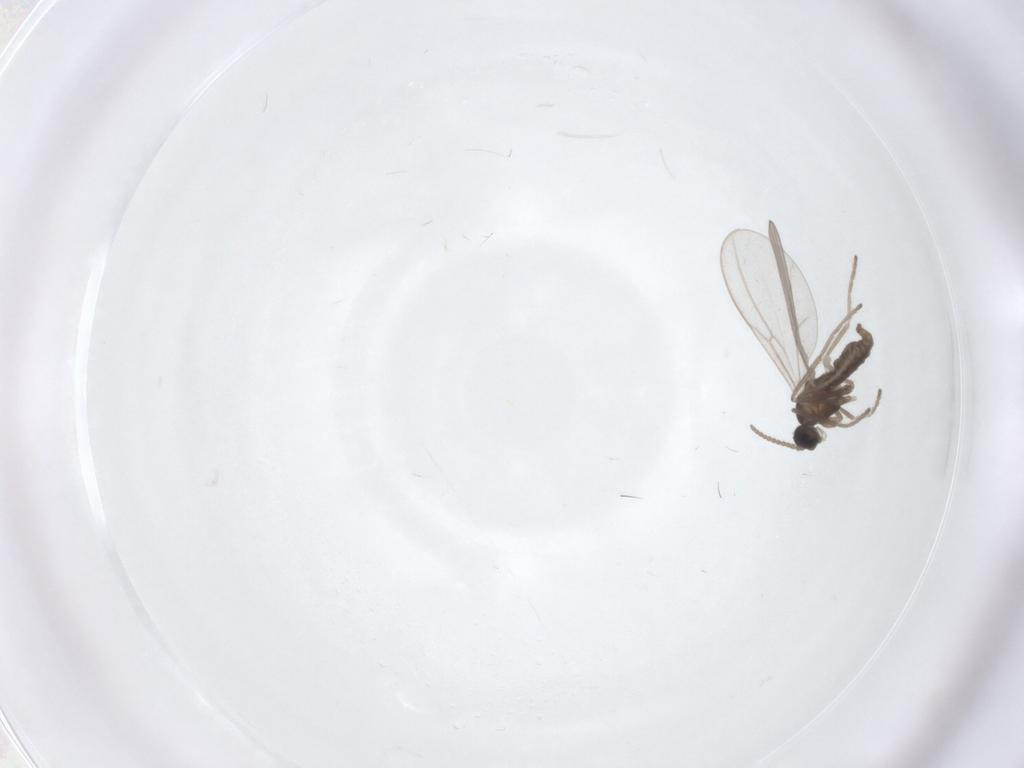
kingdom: Animalia
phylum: Arthropoda
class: Insecta
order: Diptera
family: Cecidomyiidae
